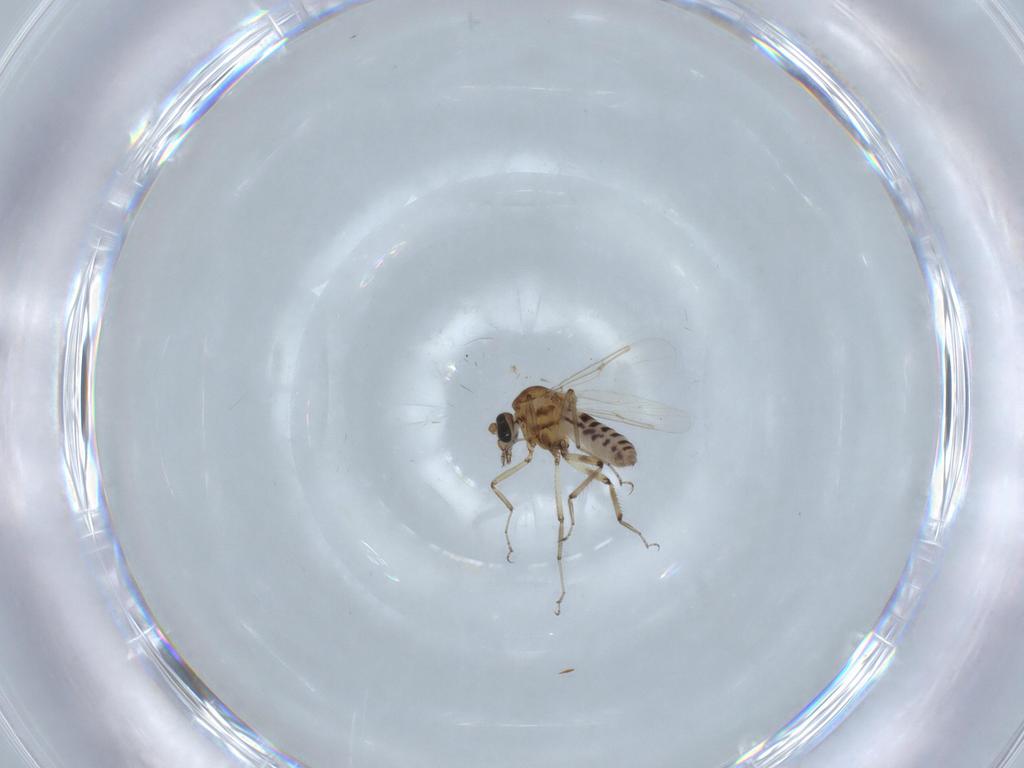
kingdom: Animalia
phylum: Arthropoda
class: Insecta
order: Diptera
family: Ceratopogonidae
